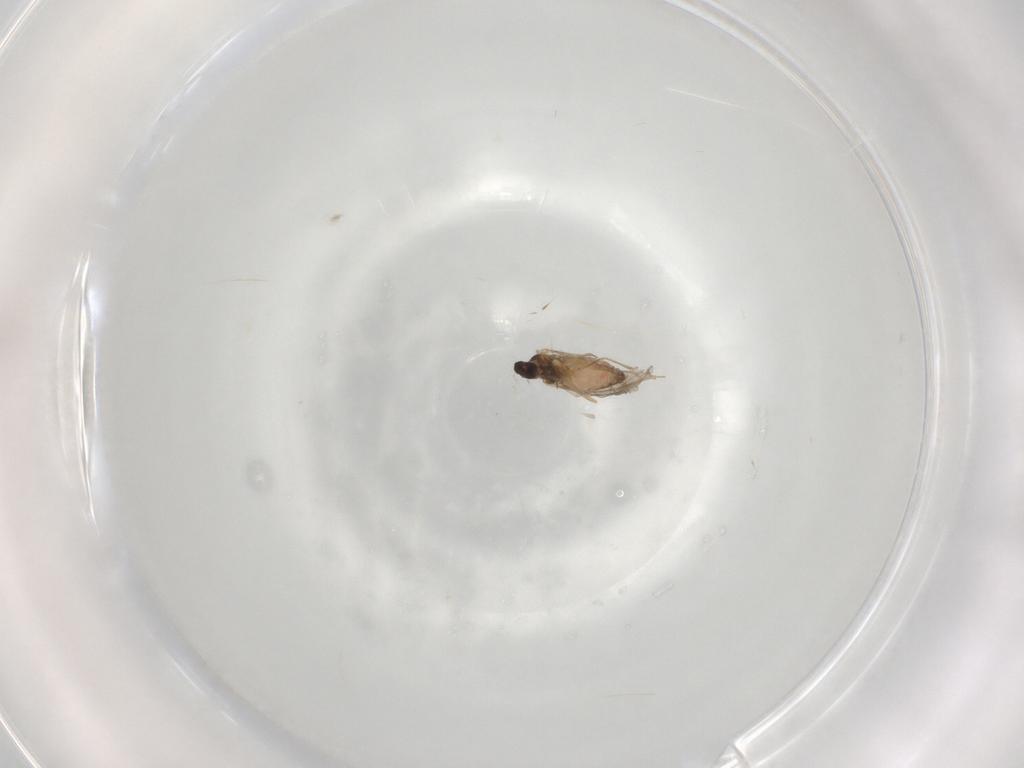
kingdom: Animalia
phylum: Arthropoda
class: Insecta
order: Diptera
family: Cecidomyiidae
